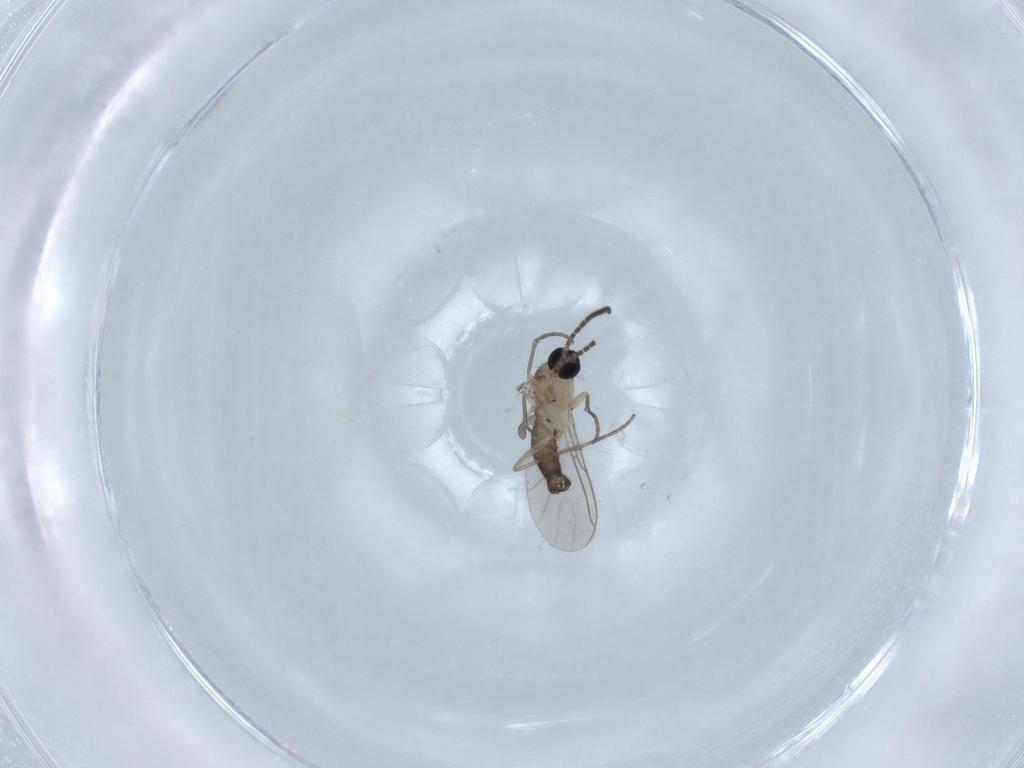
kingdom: Animalia
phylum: Arthropoda
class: Insecta
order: Diptera
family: Sciaridae
